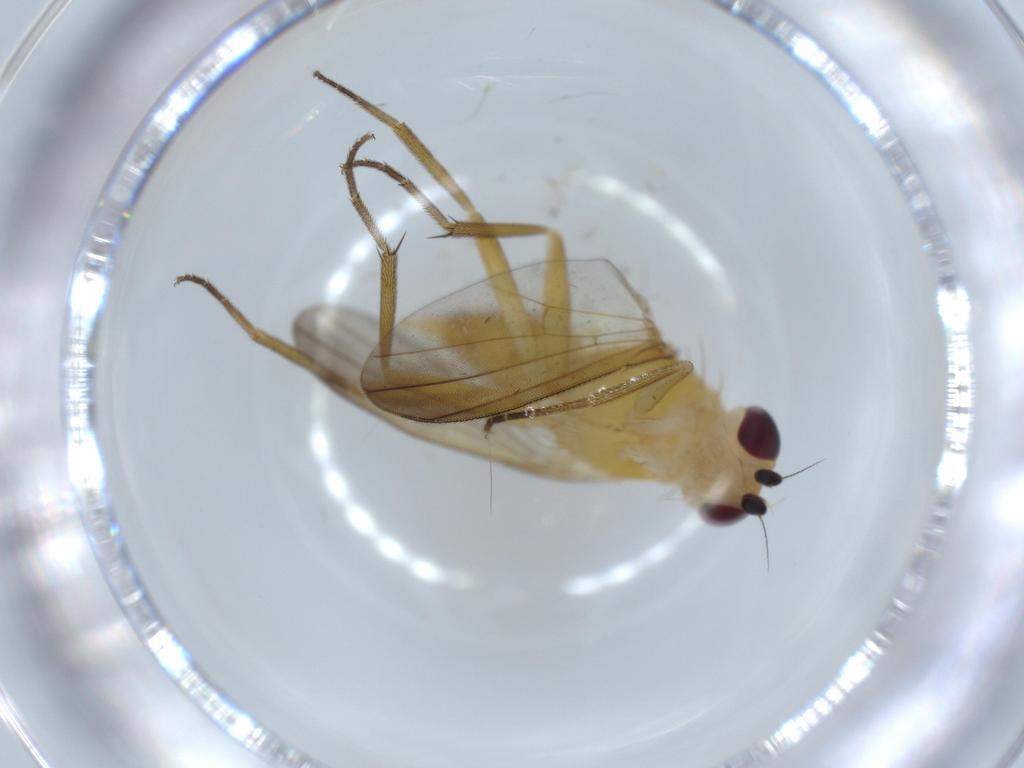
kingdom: Animalia
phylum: Arthropoda
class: Insecta
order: Diptera
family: Clusiidae
